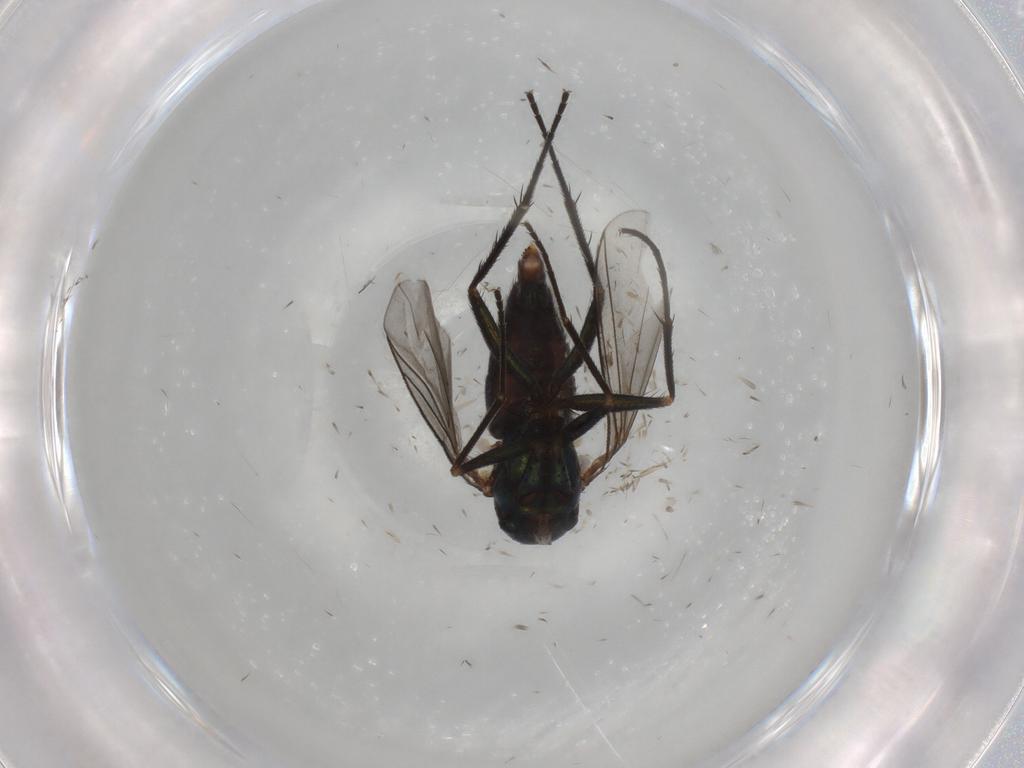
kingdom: Animalia
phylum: Arthropoda
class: Insecta
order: Diptera
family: Dolichopodidae
